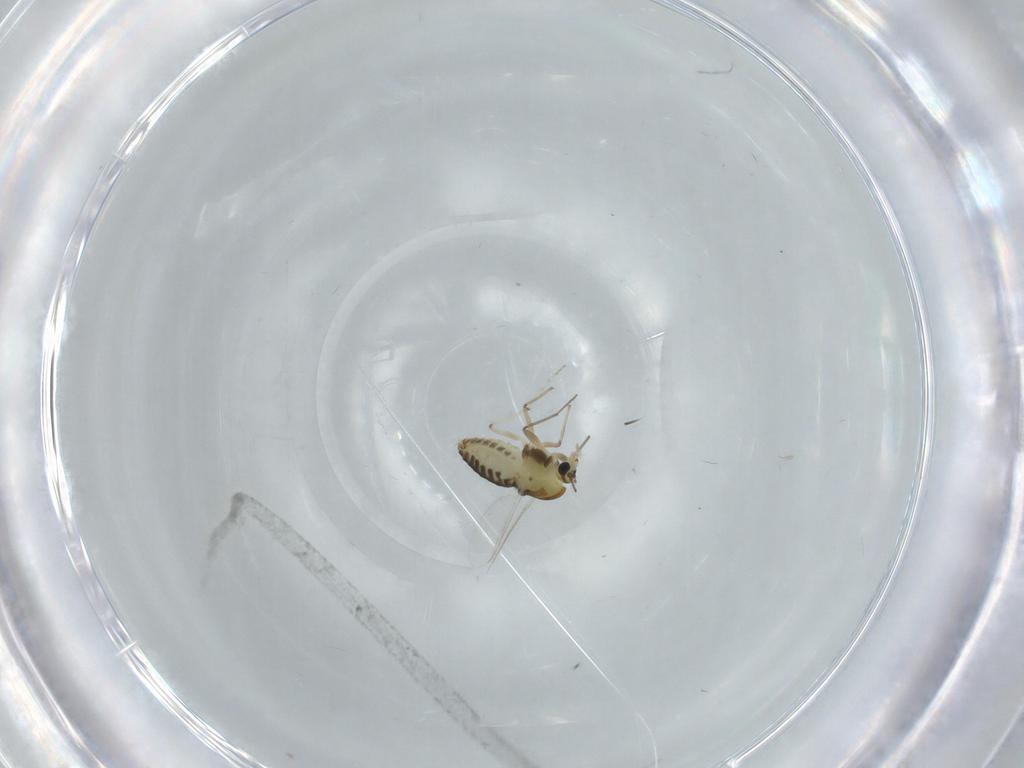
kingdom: Animalia
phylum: Arthropoda
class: Insecta
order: Diptera
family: Chironomidae
